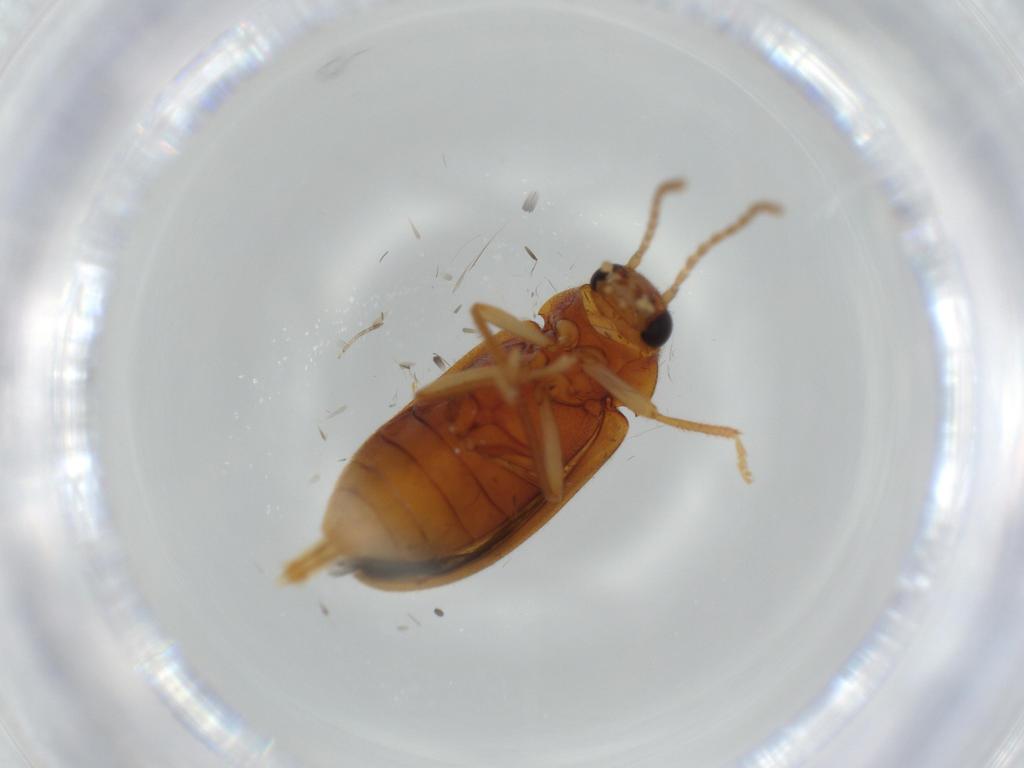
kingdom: Animalia
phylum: Arthropoda
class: Insecta
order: Coleoptera
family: Ptilodactylidae
